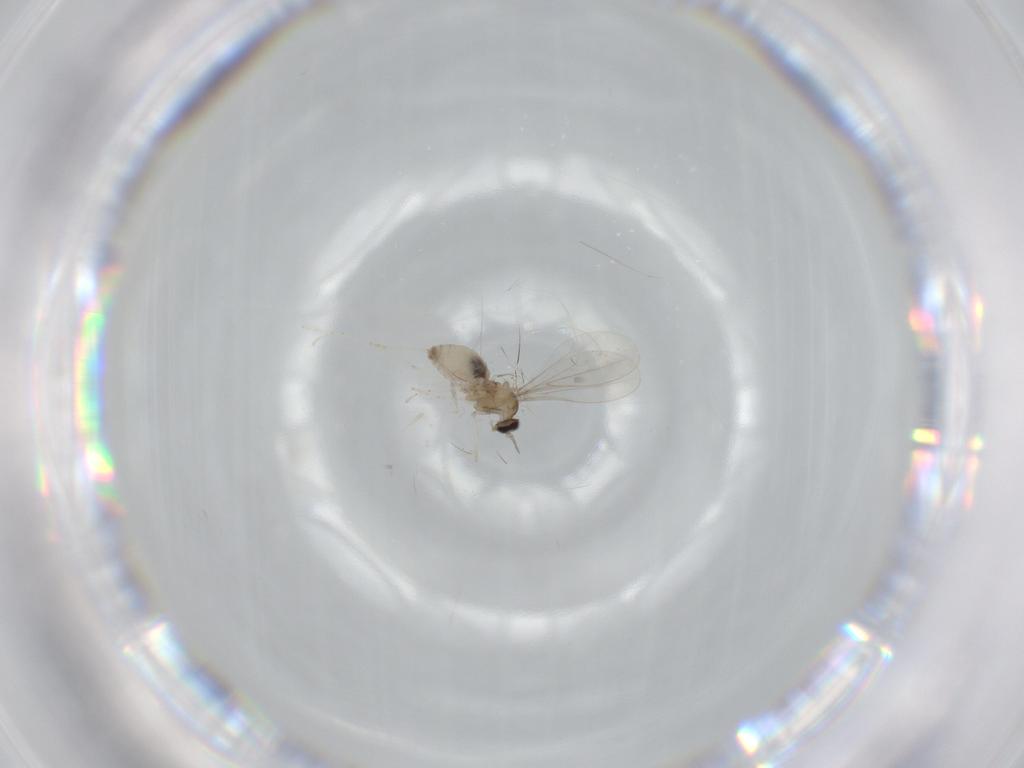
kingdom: Animalia
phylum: Arthropoda
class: Insecta
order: Diptera
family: Cecidomyiidae
